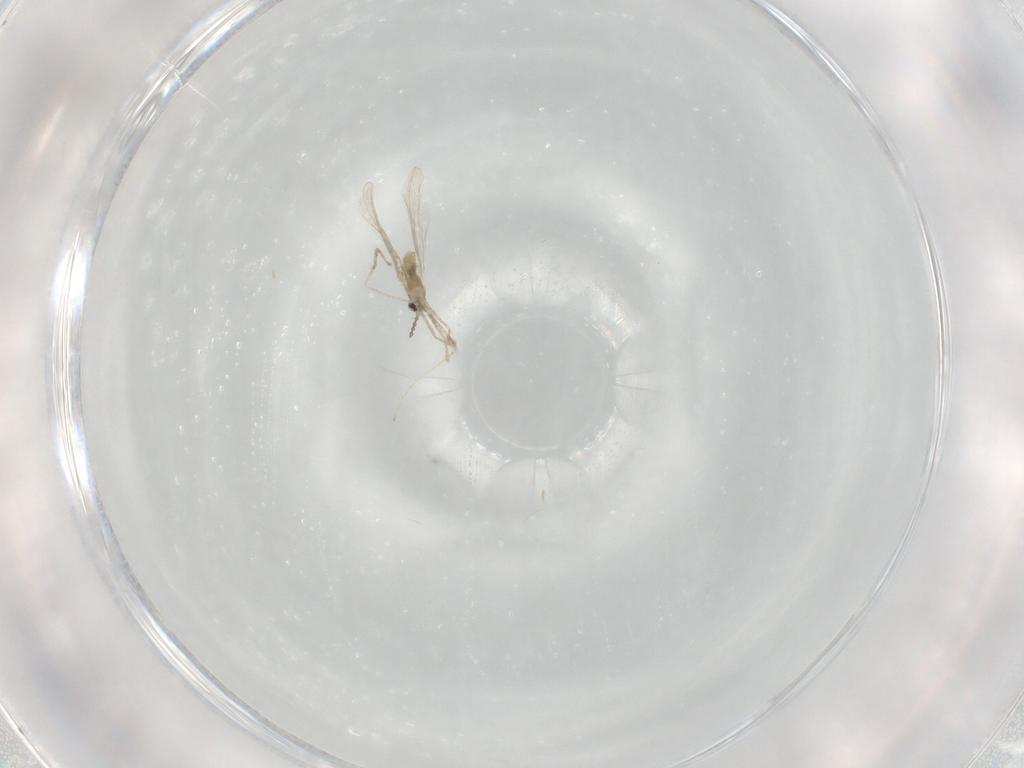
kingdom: Animalia
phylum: Arthropoda
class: Insecta
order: Diptera
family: Cecidomyiidae
